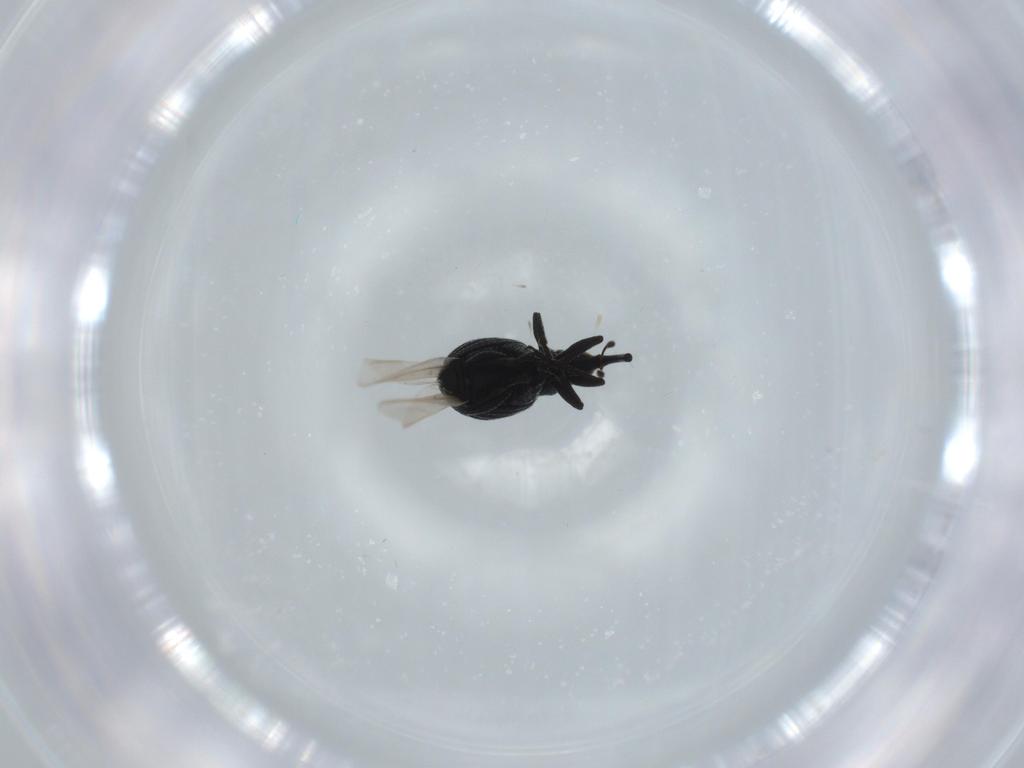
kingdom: Animalia
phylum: Arthropoda
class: Insecta
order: Coleoptera
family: Brentidae
